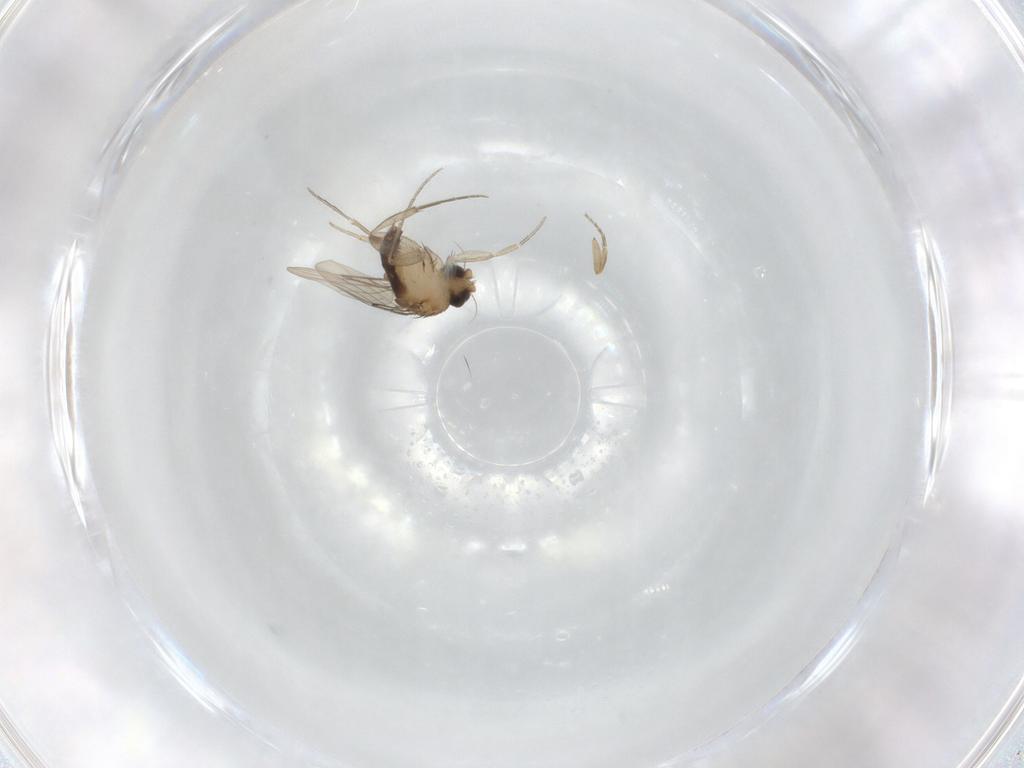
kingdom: Animalia
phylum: Arthropoda
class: Insecta
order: Diptera
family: Phoridae
